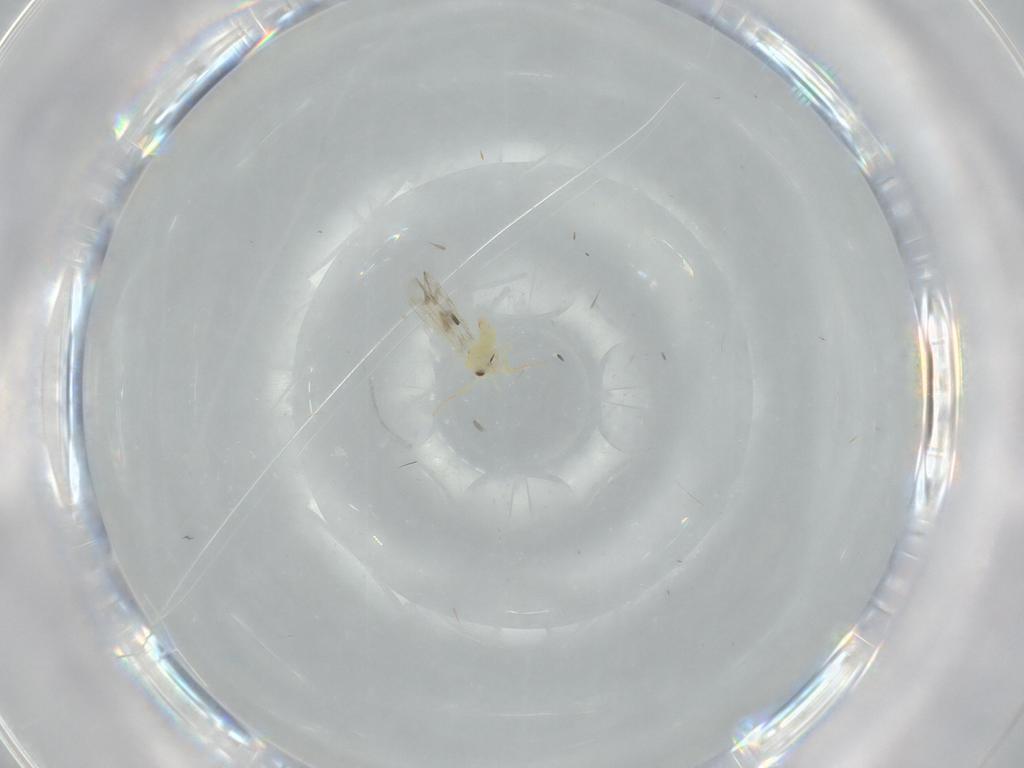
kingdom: Animalia
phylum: Arthropoda
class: Insecta
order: Hemiptera
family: Aleyrodidae
